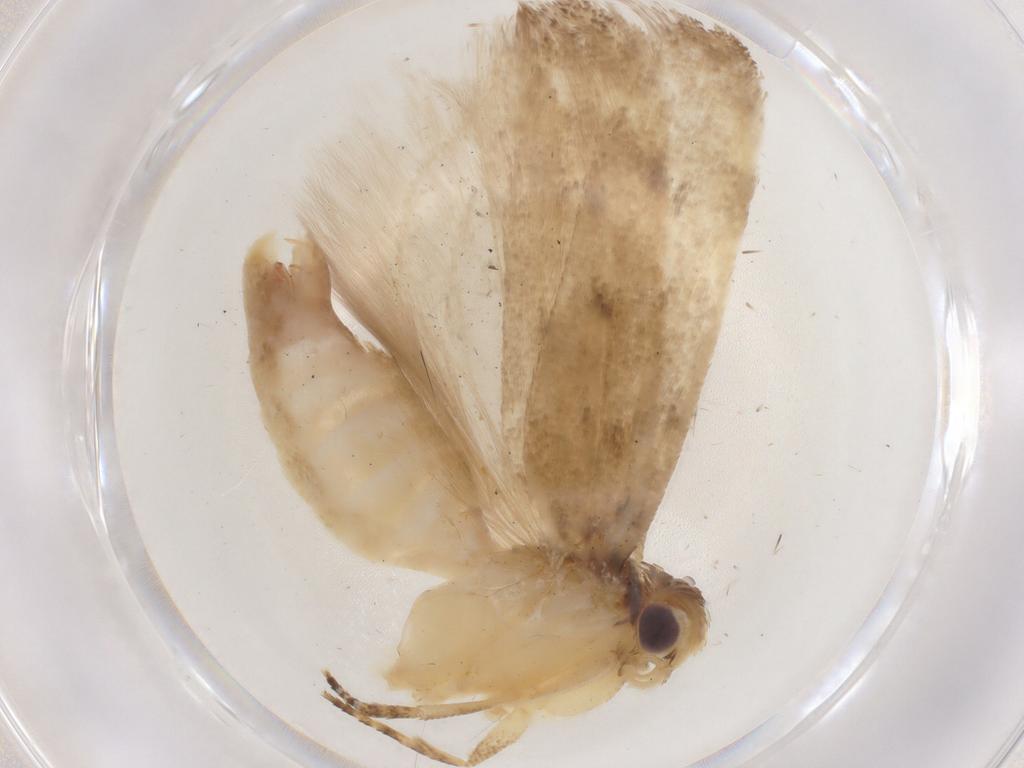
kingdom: Animalia
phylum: Arthropoda
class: Insecta
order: Lepidoptera
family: Gelechiidae
